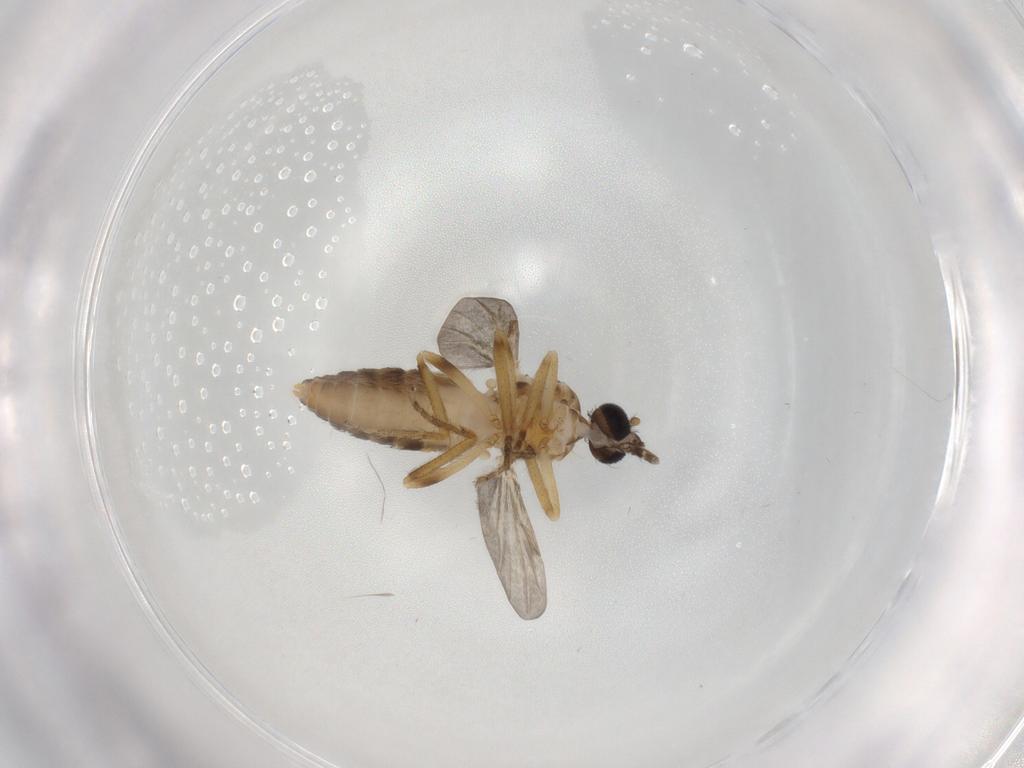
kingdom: Animalia
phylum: Arthropoda
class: Insecta
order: Diptera
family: Ceratopogonidae
